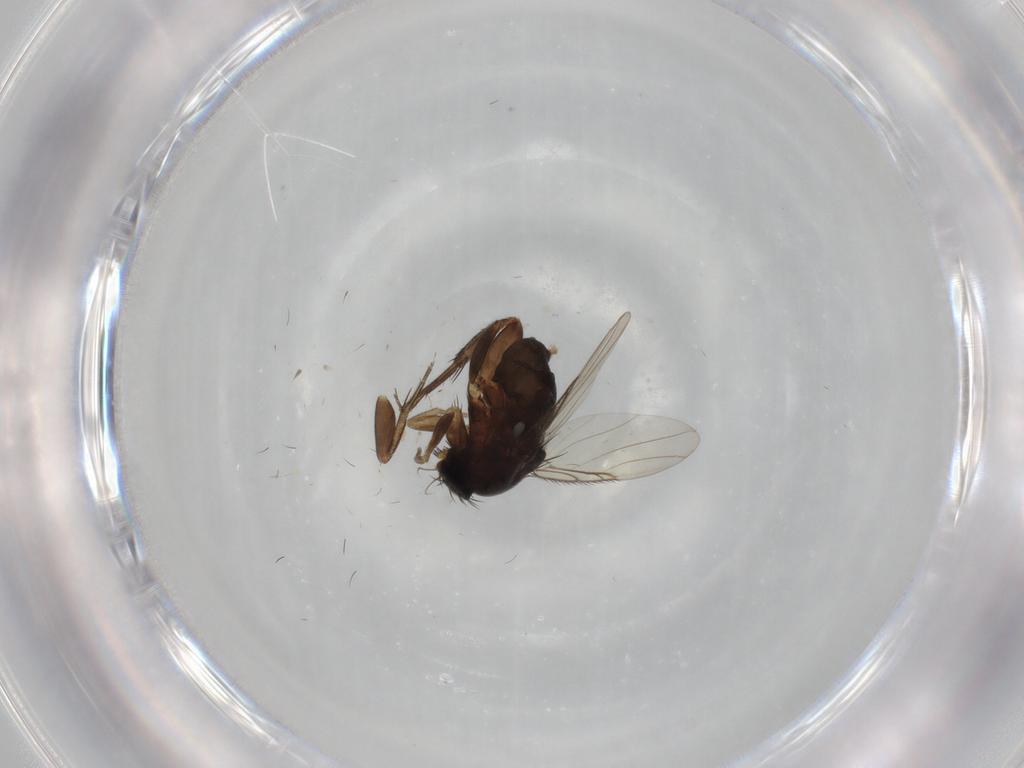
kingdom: Animalia
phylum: Arthropoda
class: Insecta
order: Diptera
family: Phoridae
